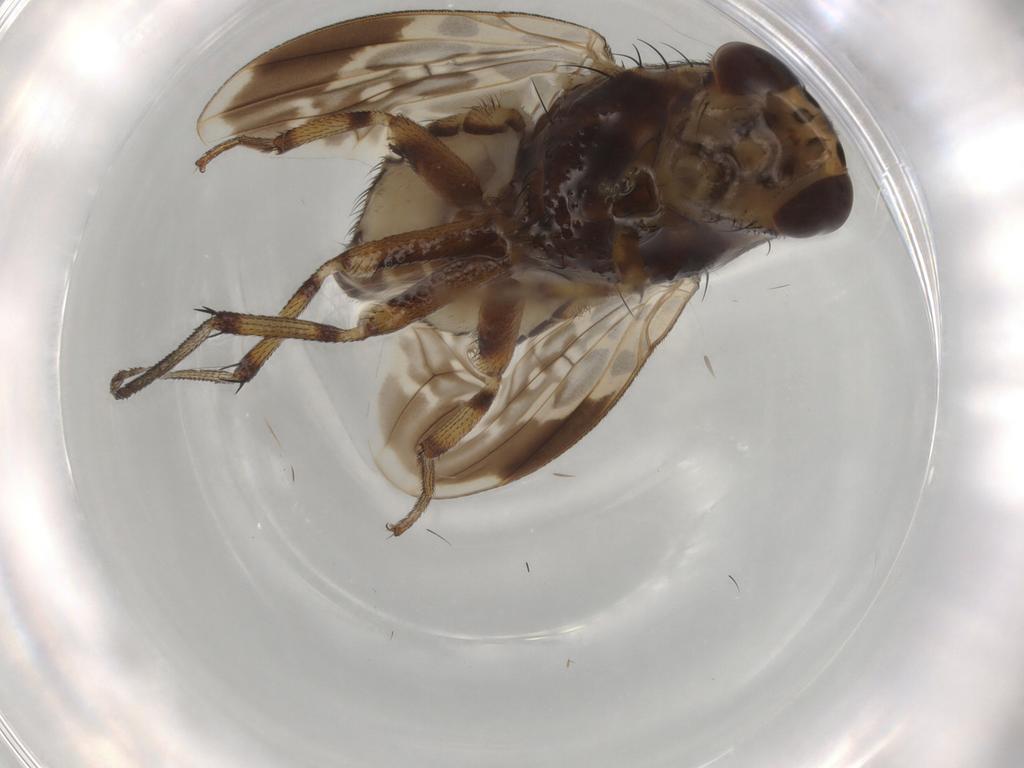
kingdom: Animalia
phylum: Arthropoda
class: Insecta
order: Diptera
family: Cecidomyiidae
